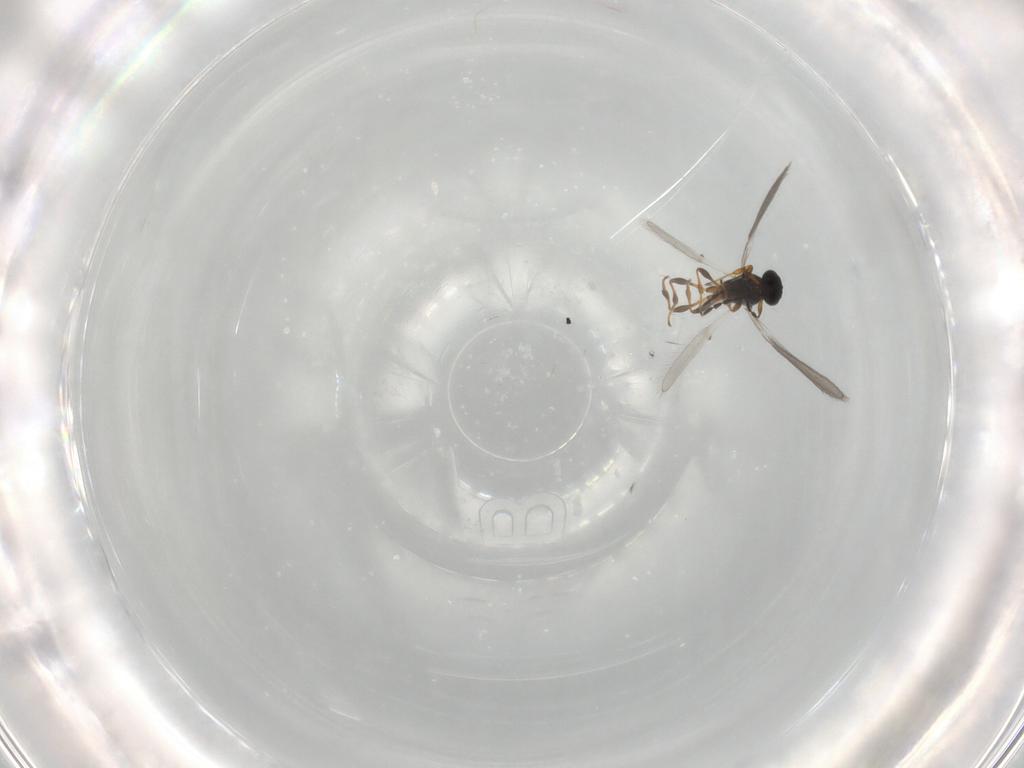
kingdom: Animalia
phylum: Arthropoda
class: Insecta
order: Hymenoptera
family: Platygastridae
